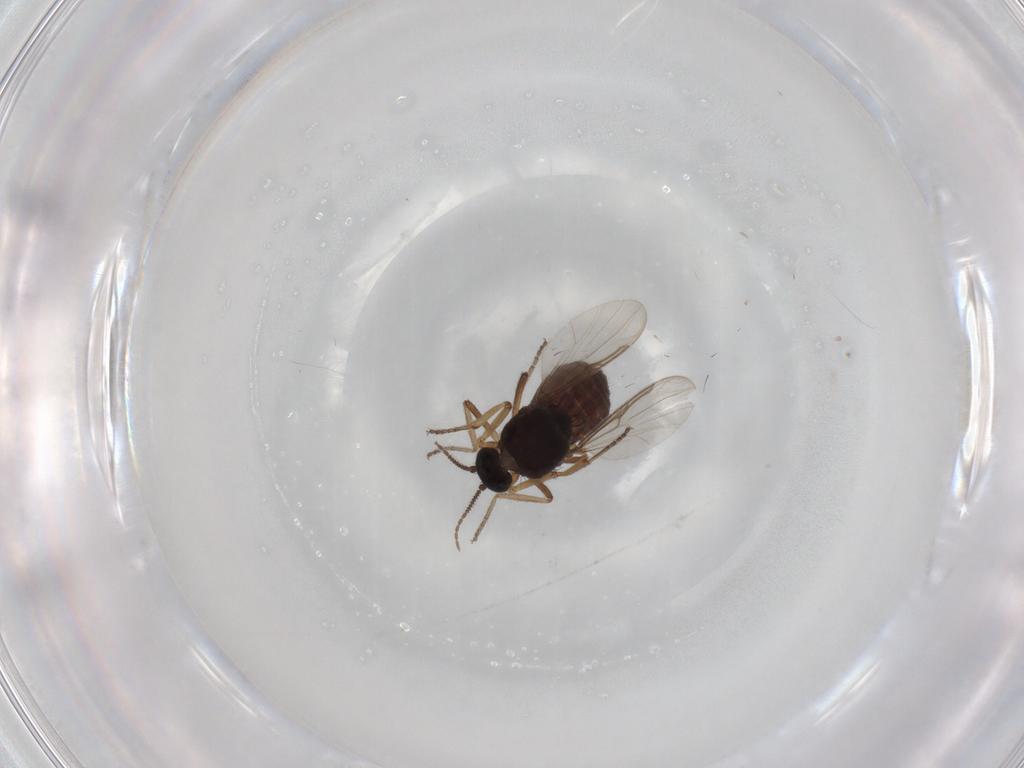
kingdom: Animalia
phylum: Arthropoda
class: Insecta
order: Diptera
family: Ceratopogonidae
